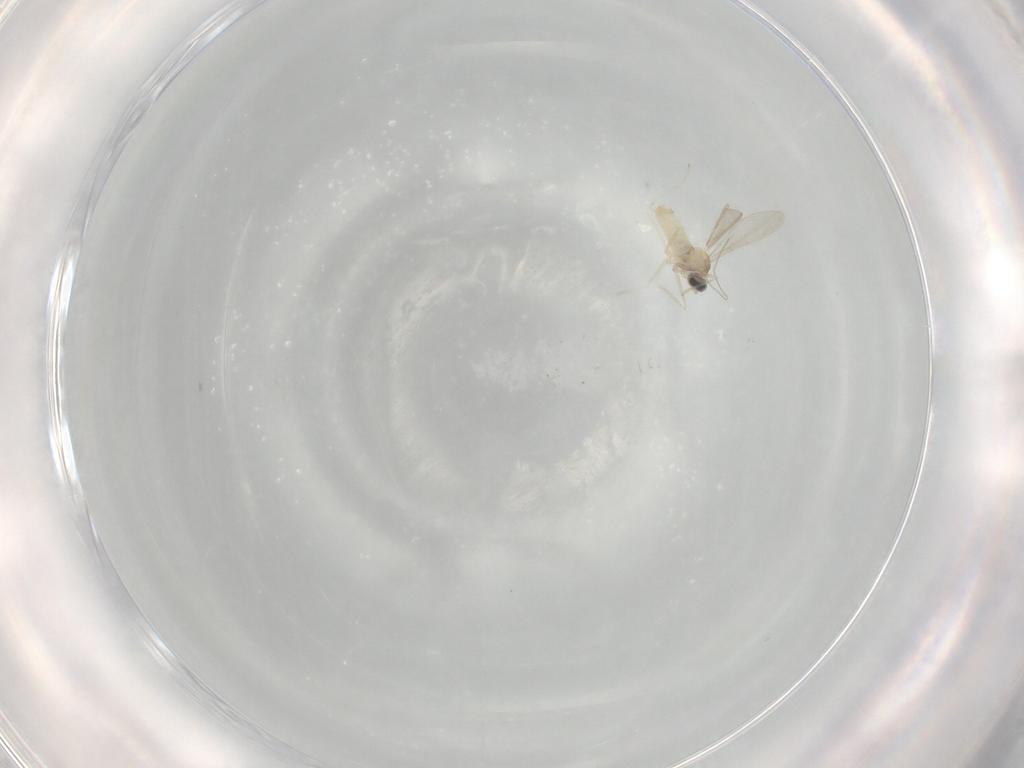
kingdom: Animalia
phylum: Arthropoda
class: Insecta
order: Diptera
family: Cecidomyiidae
